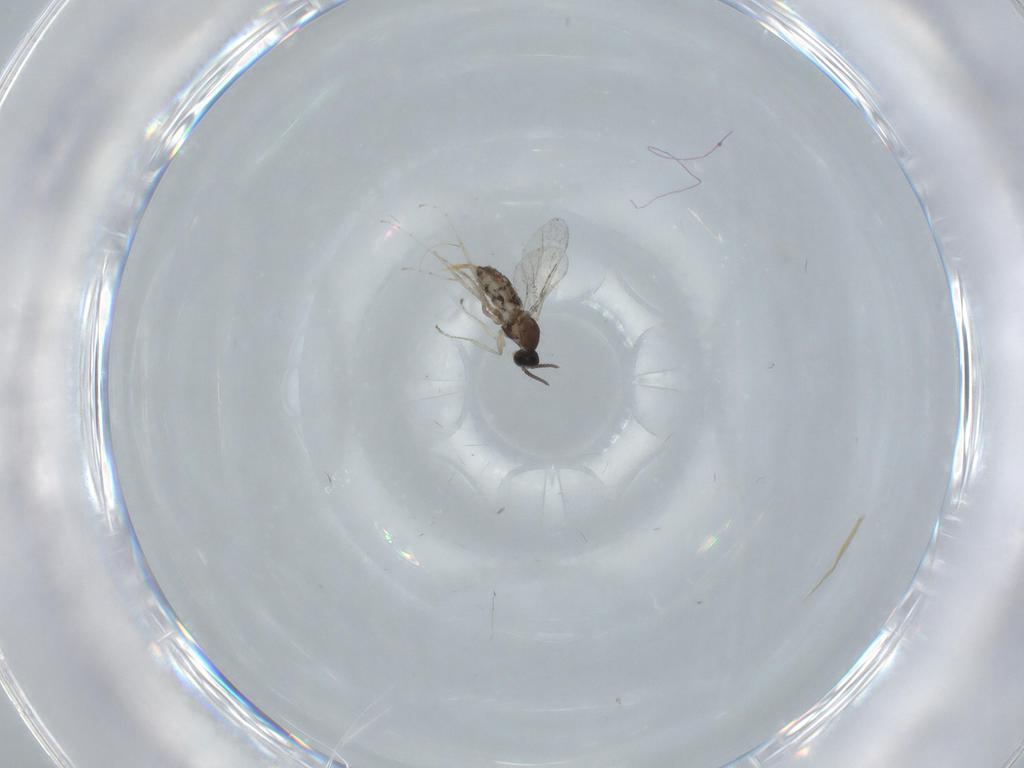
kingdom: Animalia
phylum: Arthropoda
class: Insecta
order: Diptera
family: Cecidomyiidae
